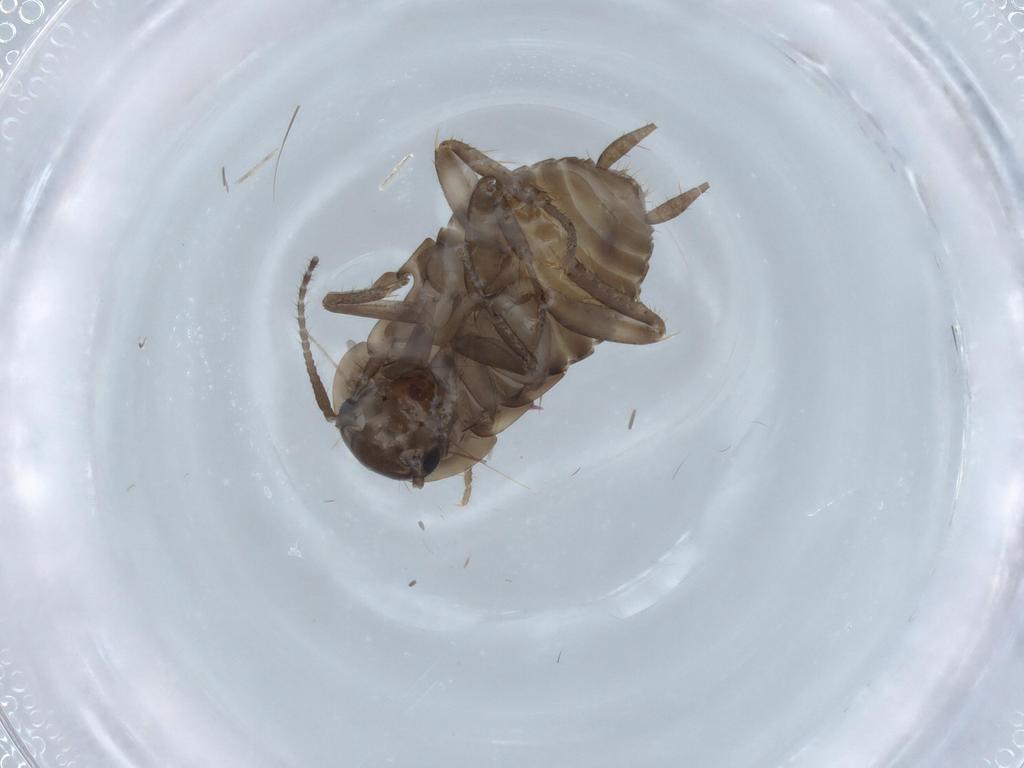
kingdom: Animalia
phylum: Arthropoda
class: Insecta
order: Blattodea
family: Ectobiidae
